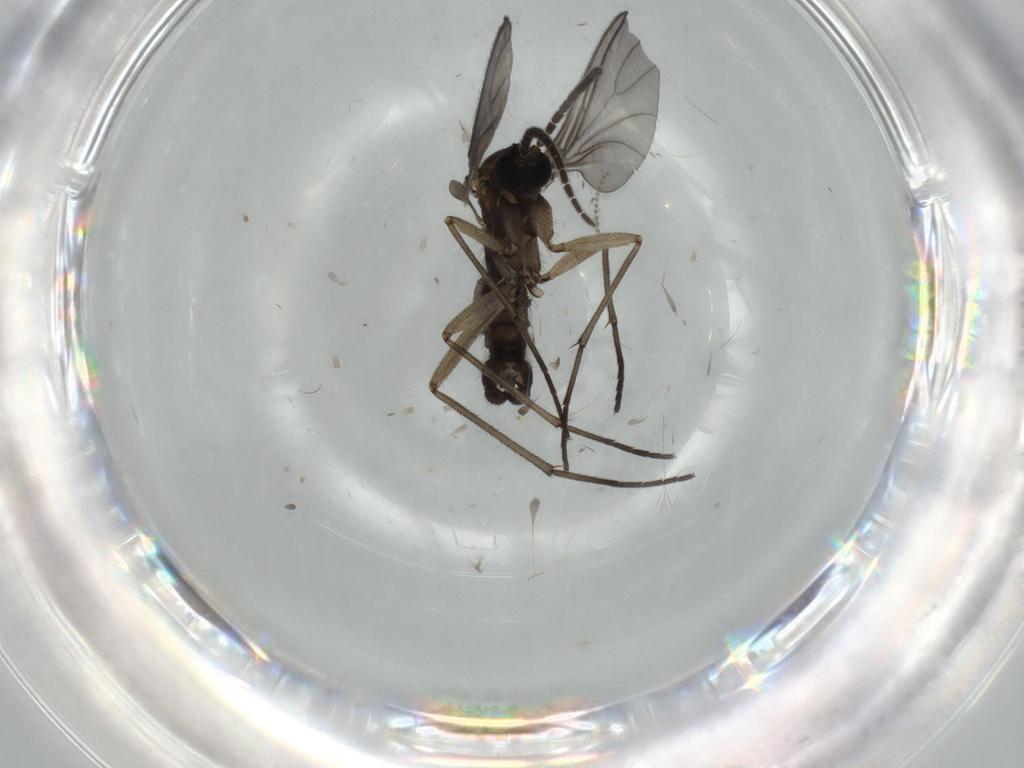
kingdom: Animalia
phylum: Arthropoda
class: Insecta
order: Diptera
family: Sciaridae
